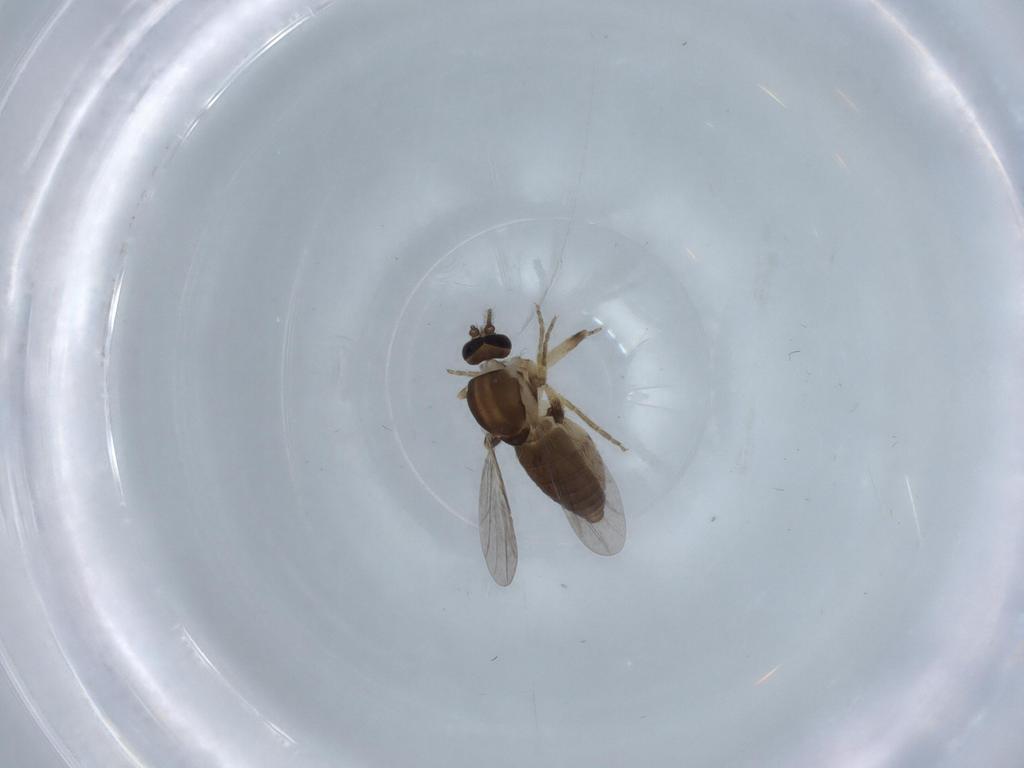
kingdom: Animalia
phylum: Arthropoda
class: Insecta
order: Diptera
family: Ceratopogonidae
